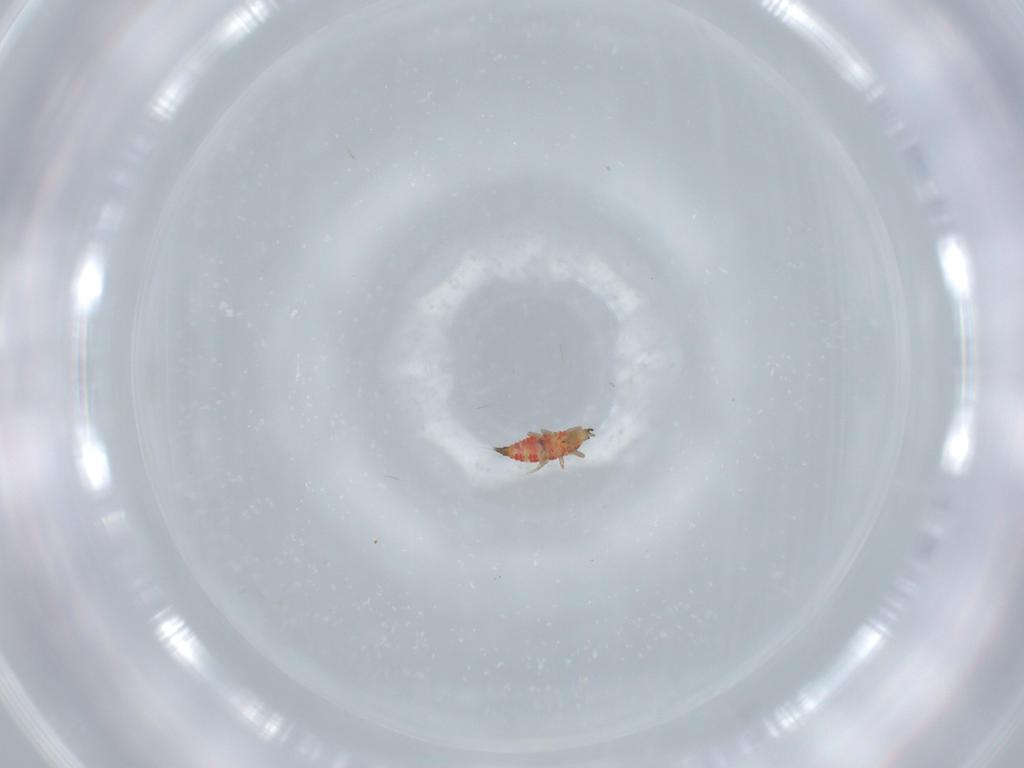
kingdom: Animalia
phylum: Arthropoda
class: Insecta
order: Thysanoptera
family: Phlaeothripidae
